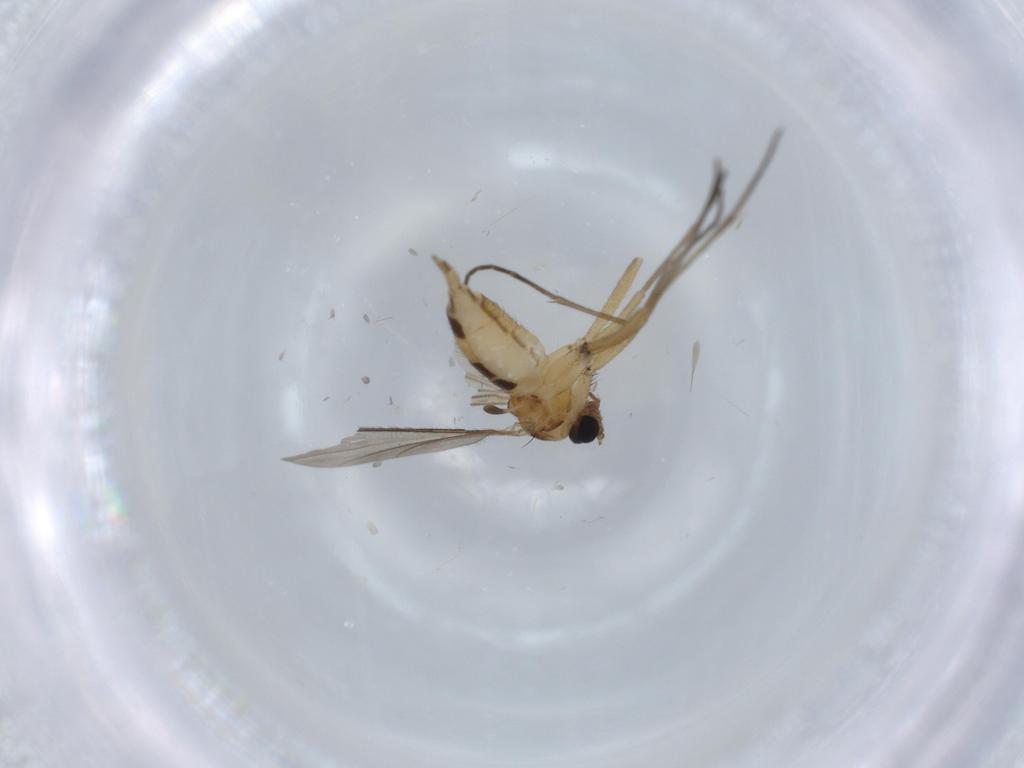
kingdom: Animalia
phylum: Arthropoda
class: Insecta
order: Diptera
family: Dolichopodidae
